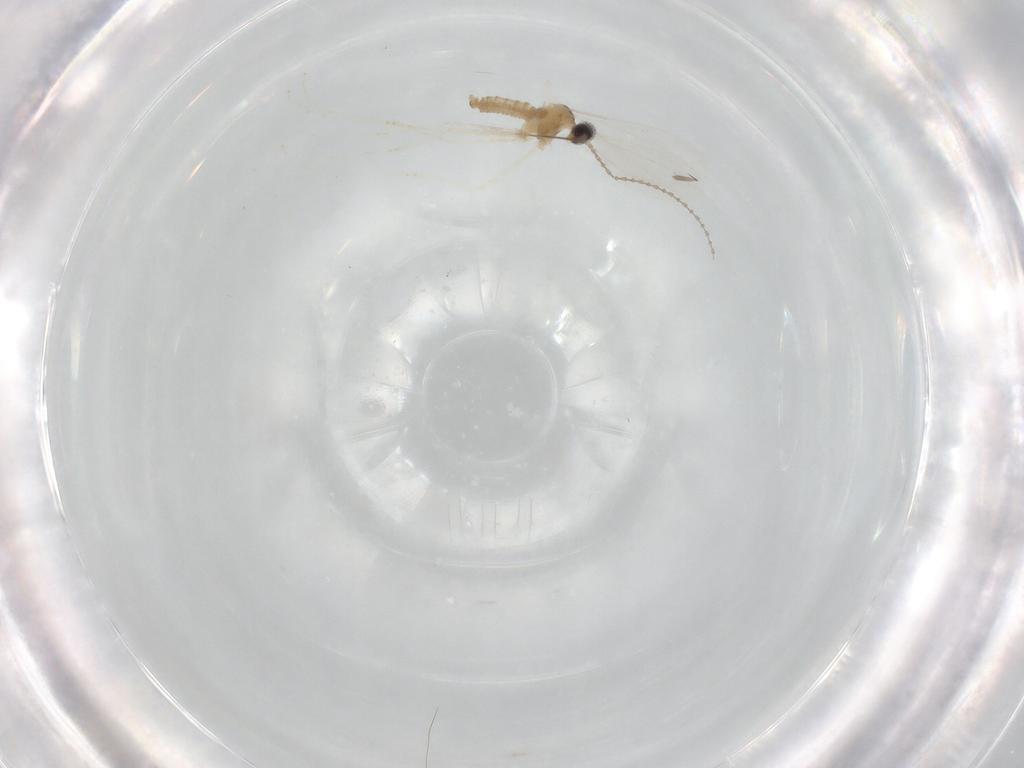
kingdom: Animalia
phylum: Arthropoda
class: Insecta
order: Diptera
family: Cecidomyiidae
